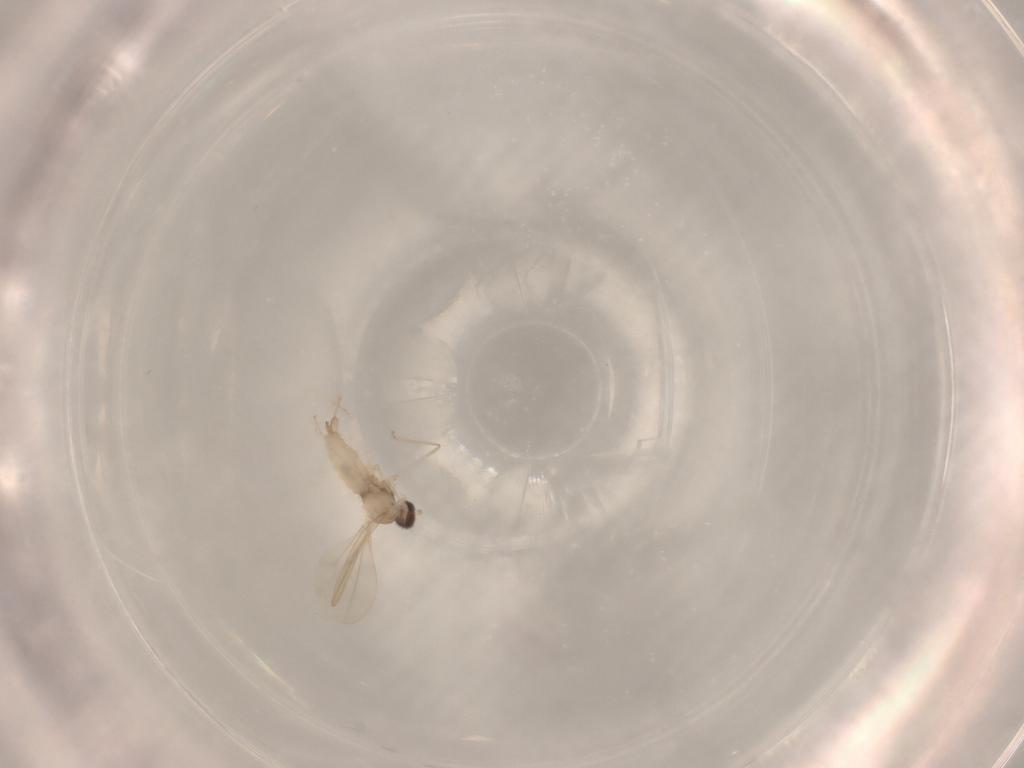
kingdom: Animalia
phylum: Arthropoda
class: Insecta
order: Diptera
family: Cecidomyiidae
